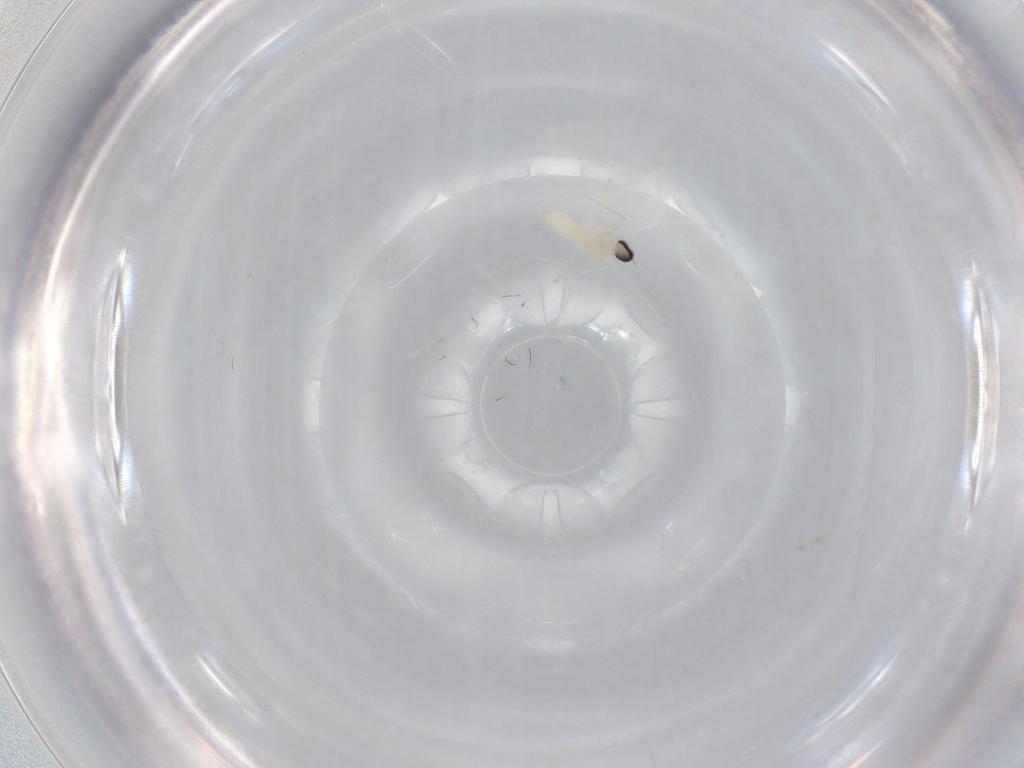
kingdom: Animalia
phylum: Arthropoda
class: Insecta
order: Diptera
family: Cecidomyiidae
